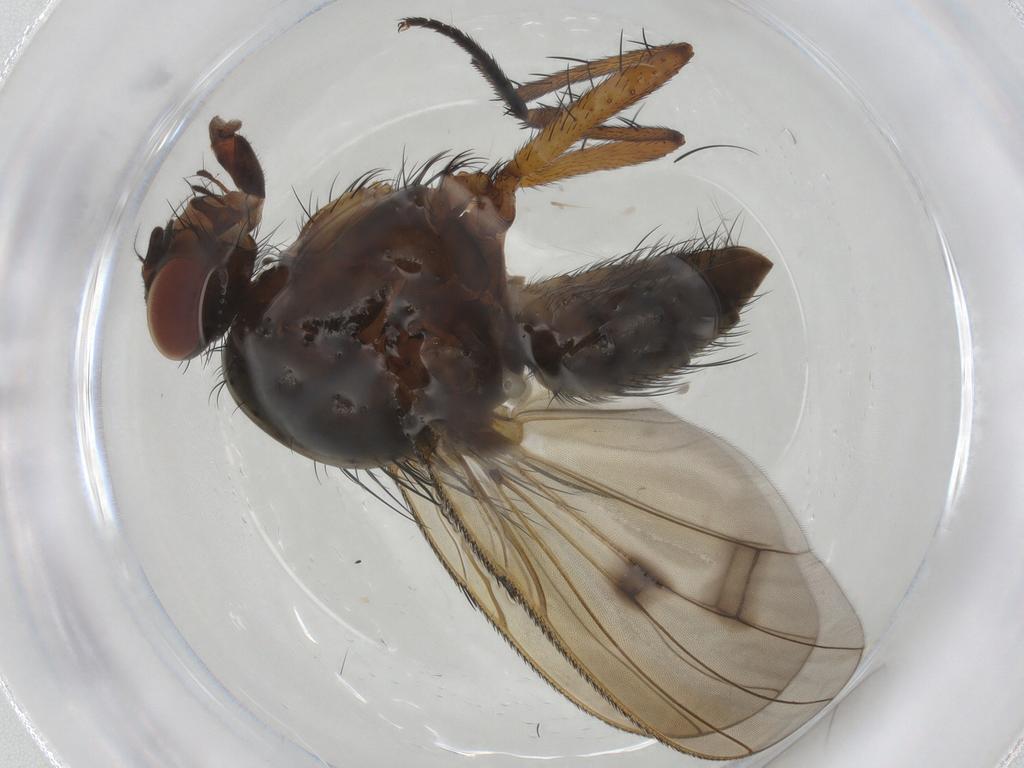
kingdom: Animalia
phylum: Arthropoda
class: Insecta
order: Diptera
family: Anthomyiidae
